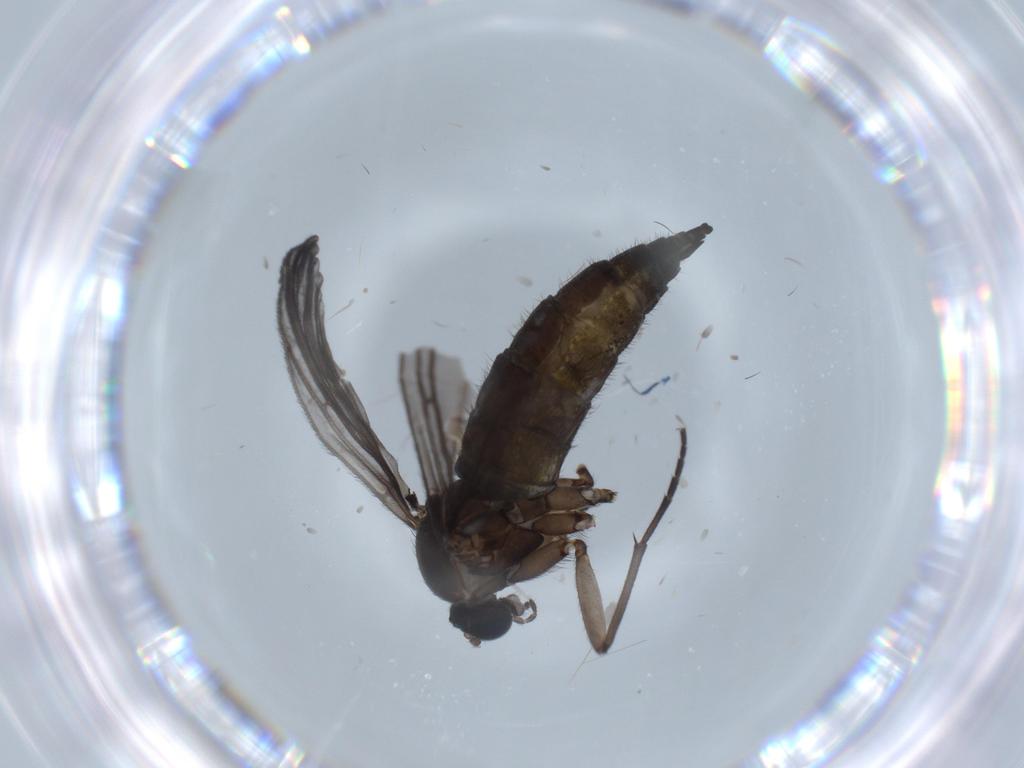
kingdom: Animalia
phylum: Arthropoda
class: Insecta
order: Diptera
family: Sciaridae
